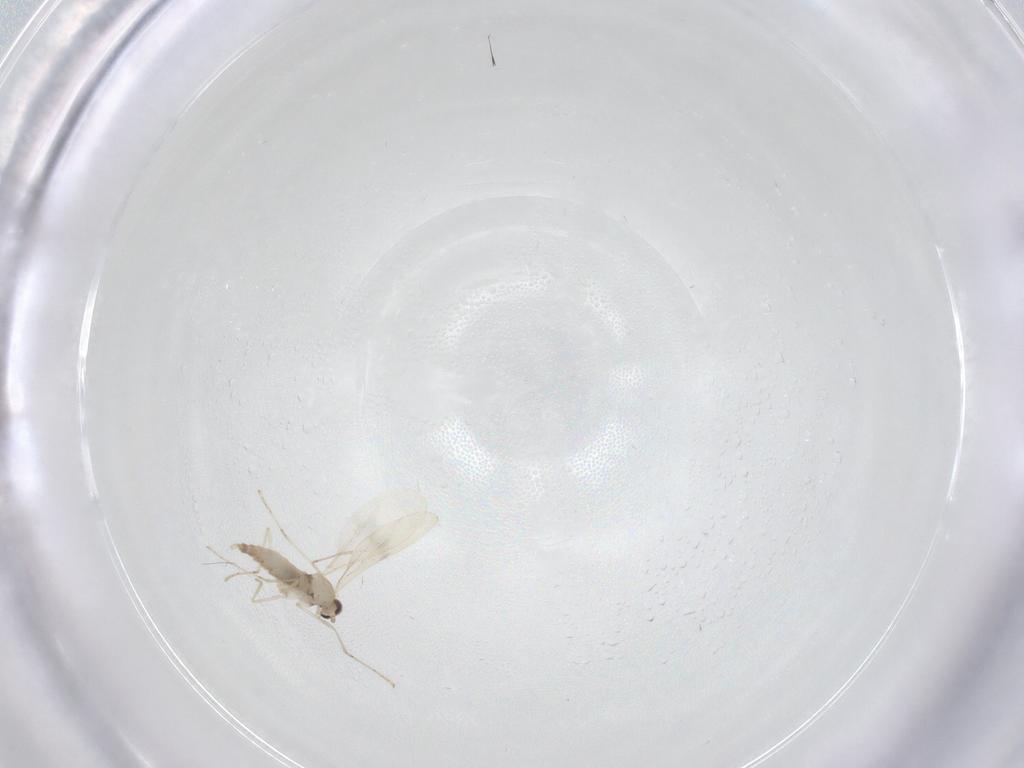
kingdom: Animalia
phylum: Arthropoda
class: Insecta
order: Diptera
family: Cecidomyiidae
